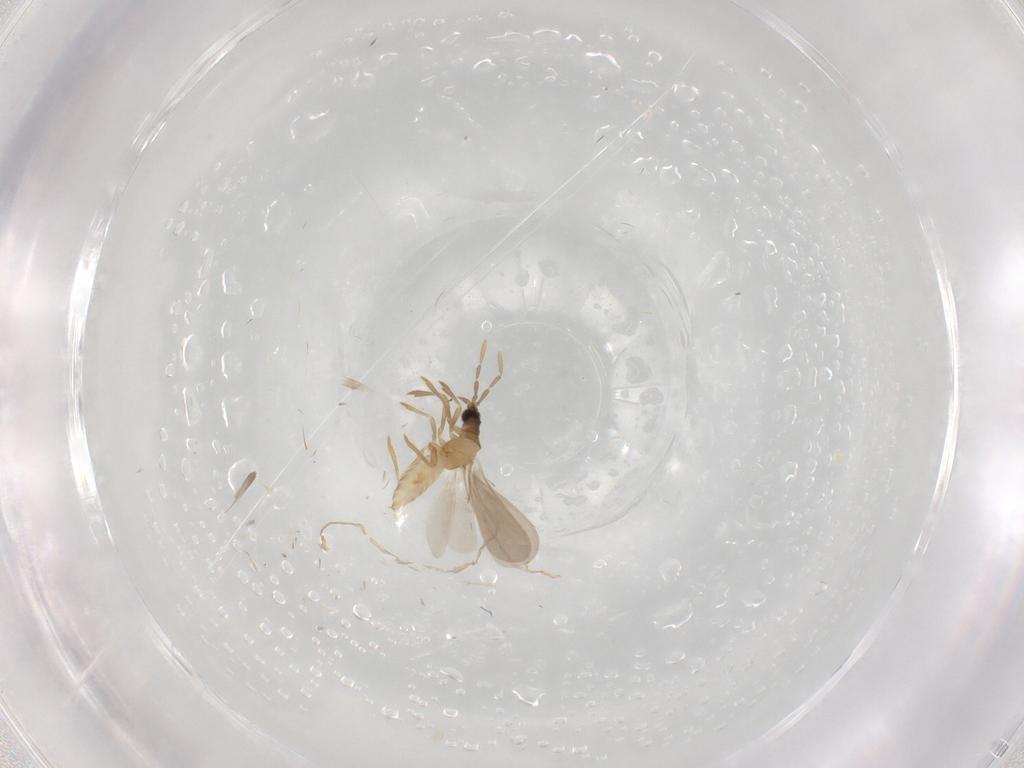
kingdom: Animalia
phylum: Arthropoda
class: Insecta
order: Hemiptera
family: Enicocephalidae
